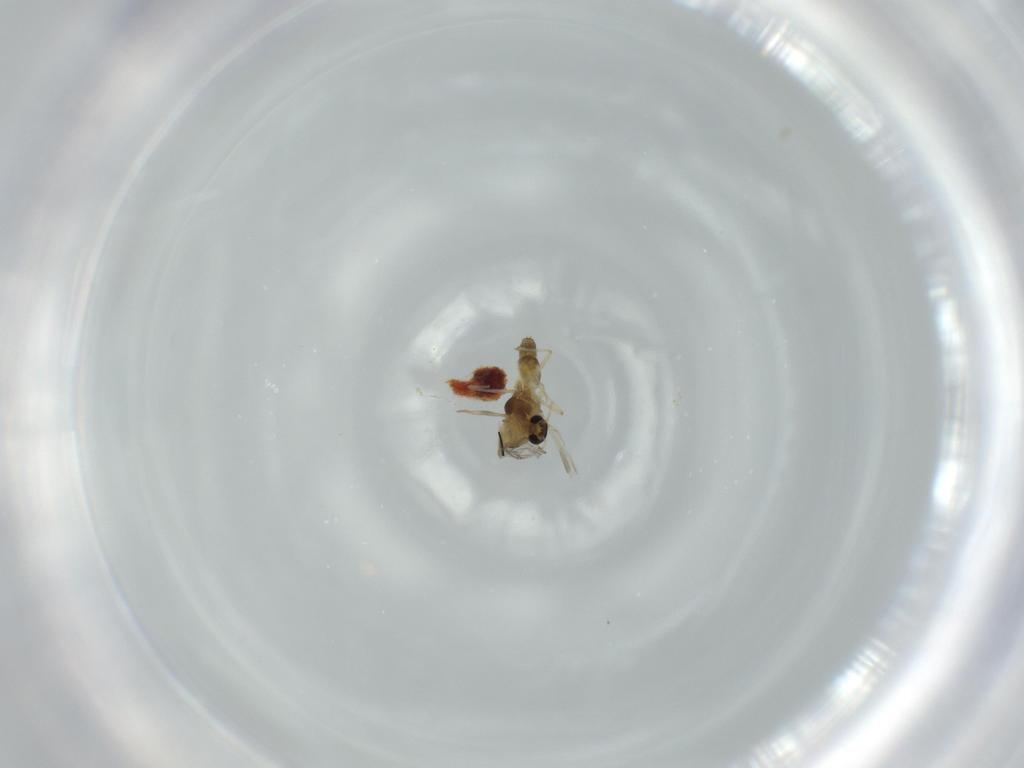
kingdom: Animalia
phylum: Arthropoda
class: Insecta
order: Diptera
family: Chironomidae
